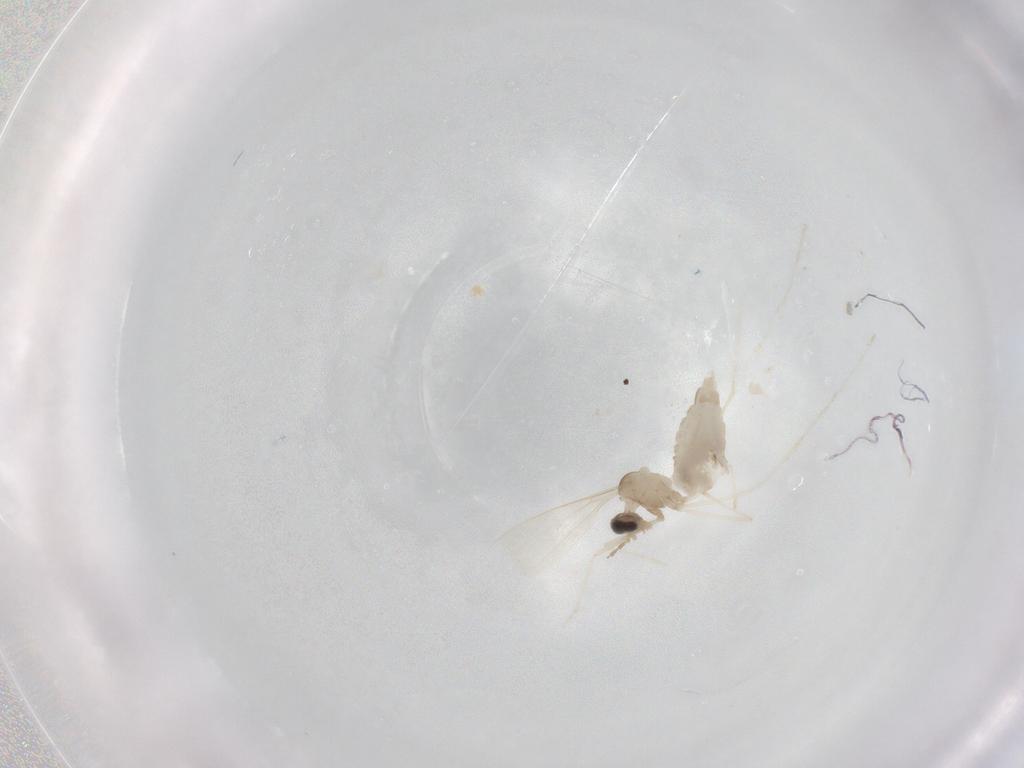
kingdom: Animalia
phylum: Arthropoda
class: Insecta
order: Diptera
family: Cecidomyiidae
